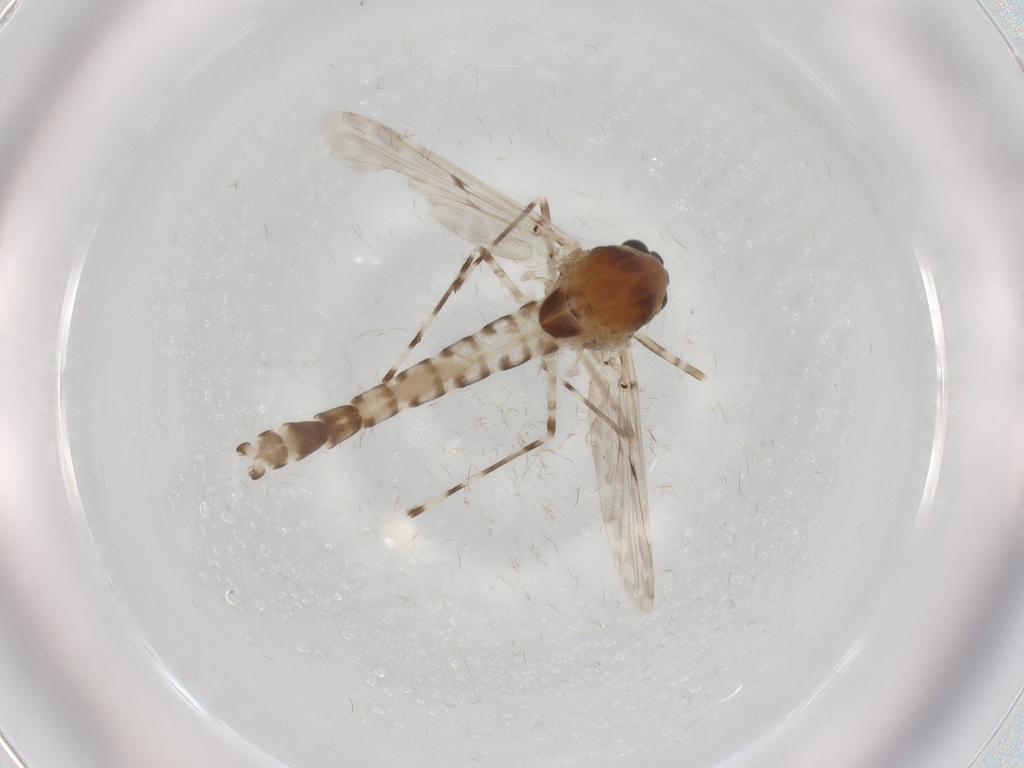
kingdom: Animalia
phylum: Arthropoda
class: Insecta
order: Diptera
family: Chironomidae
